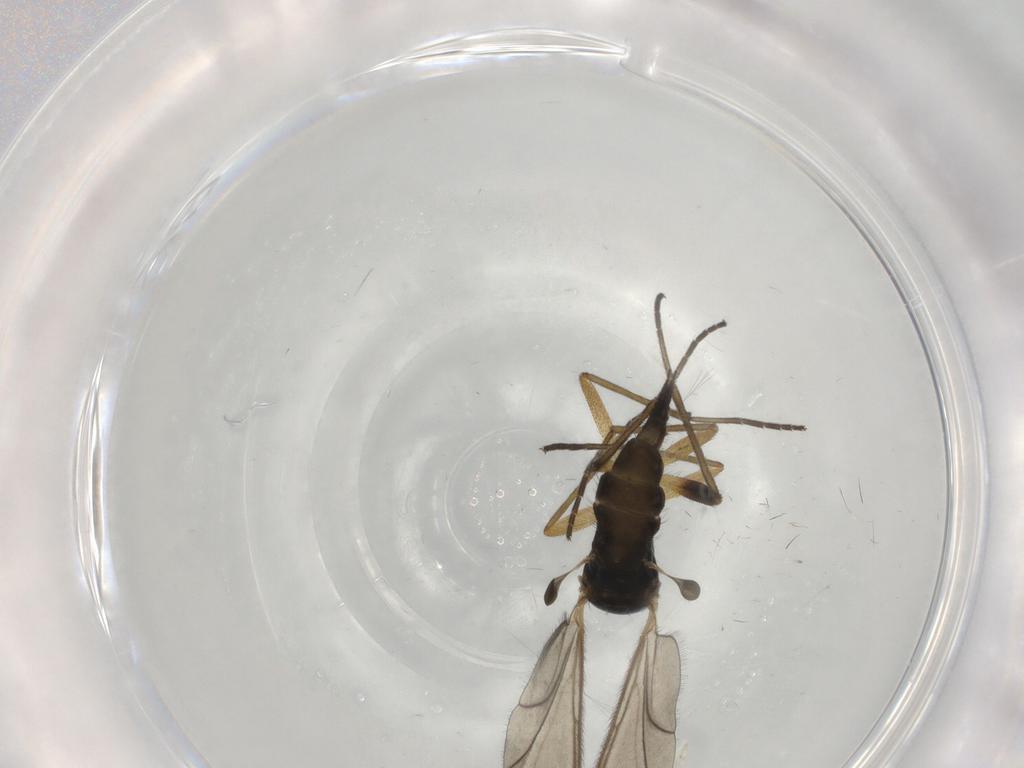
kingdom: Animalia
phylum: Arthropoda
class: Insecta
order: Diptera
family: Sciaridae
